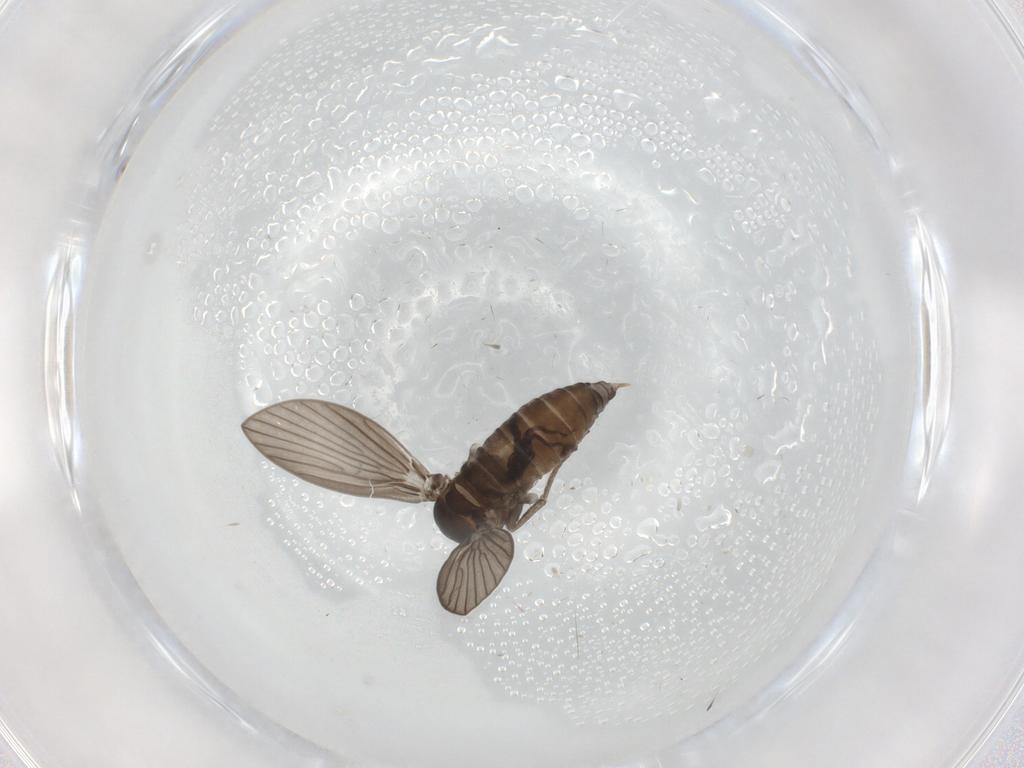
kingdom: Animalia
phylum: Arthropoda
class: Insecta
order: Diptera
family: Psychodidae
